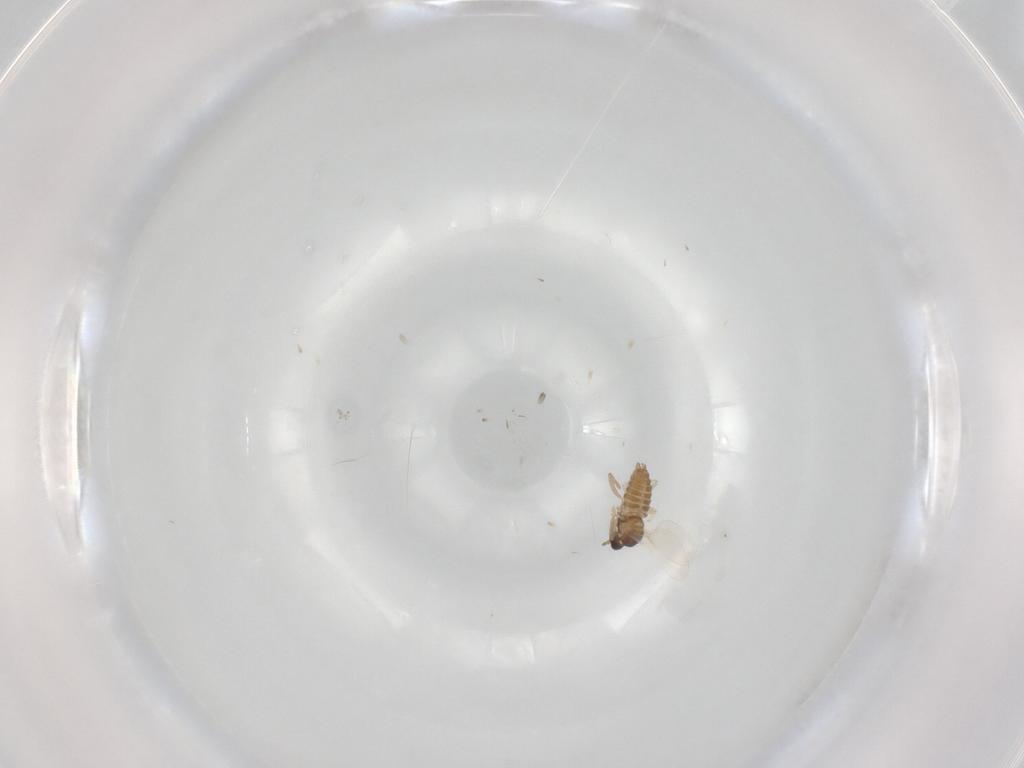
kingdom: Animalia
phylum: Arthropoda
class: Insecta
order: Diptera
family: Cecidomyiidae
